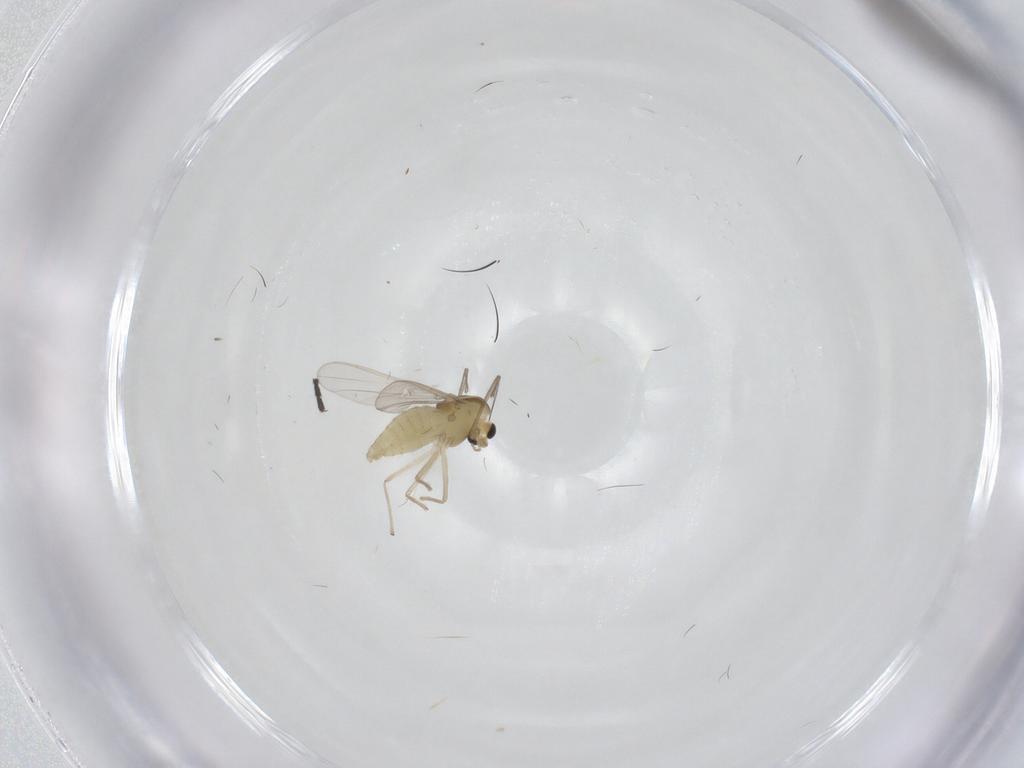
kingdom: Animalia
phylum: Arthropoda
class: Insecta
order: Diptera
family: Chironomidae
